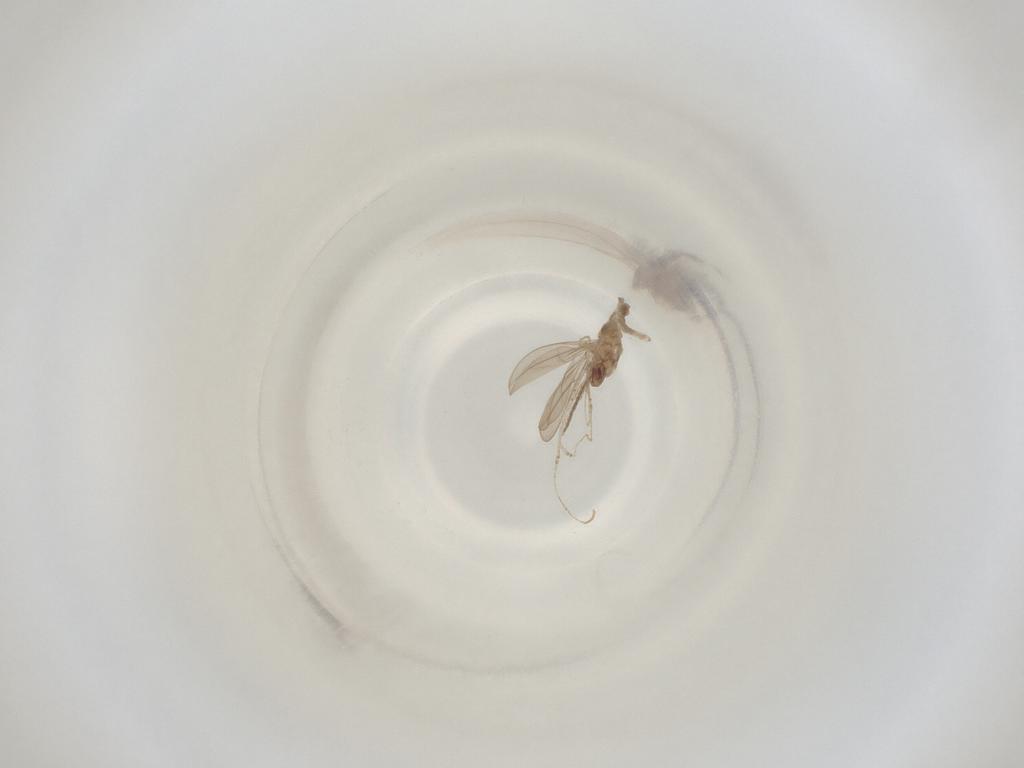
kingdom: Animalia
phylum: Arthropoda
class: Insecta
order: Diptera
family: Cecidomyiidae
